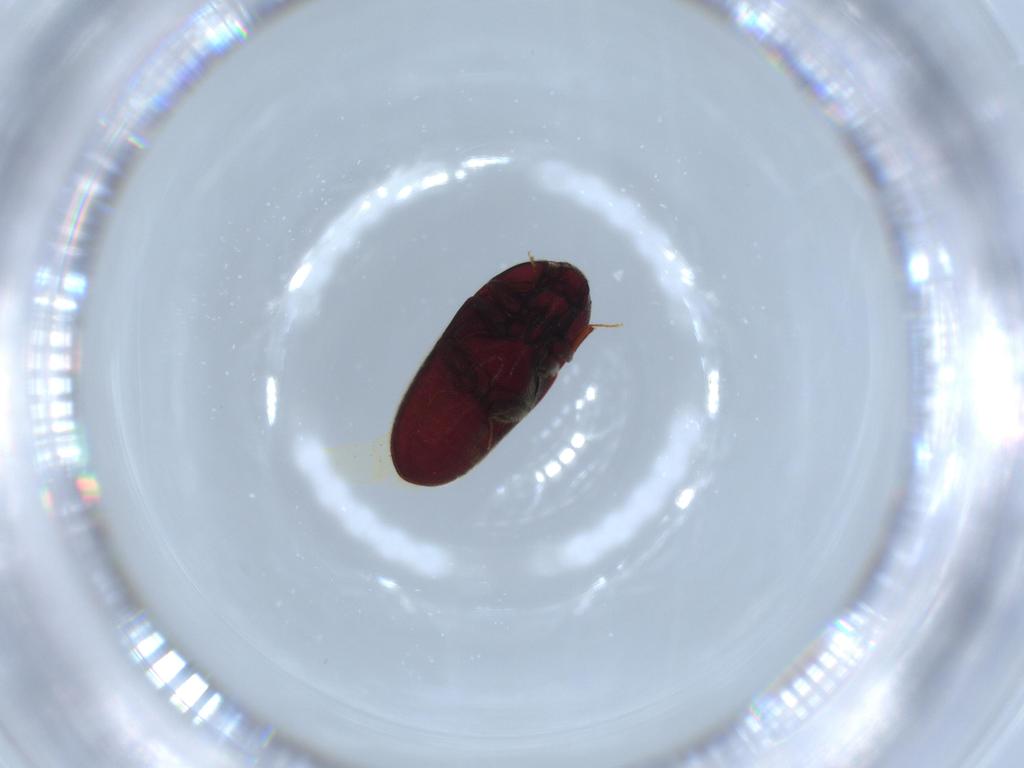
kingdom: Animalia
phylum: Arthropoda
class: Insecta
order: Coleoptera
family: Throscidae
